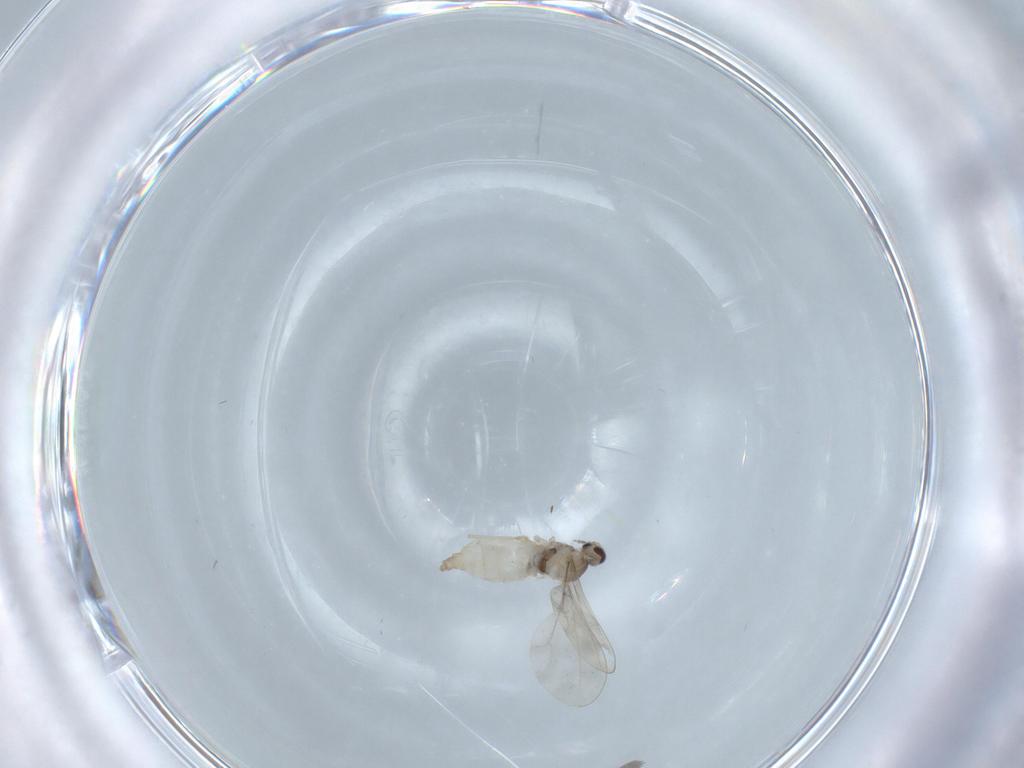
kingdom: Animalia
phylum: Arthropoda
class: Insecta
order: Diptera
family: Cecidomyiidae
